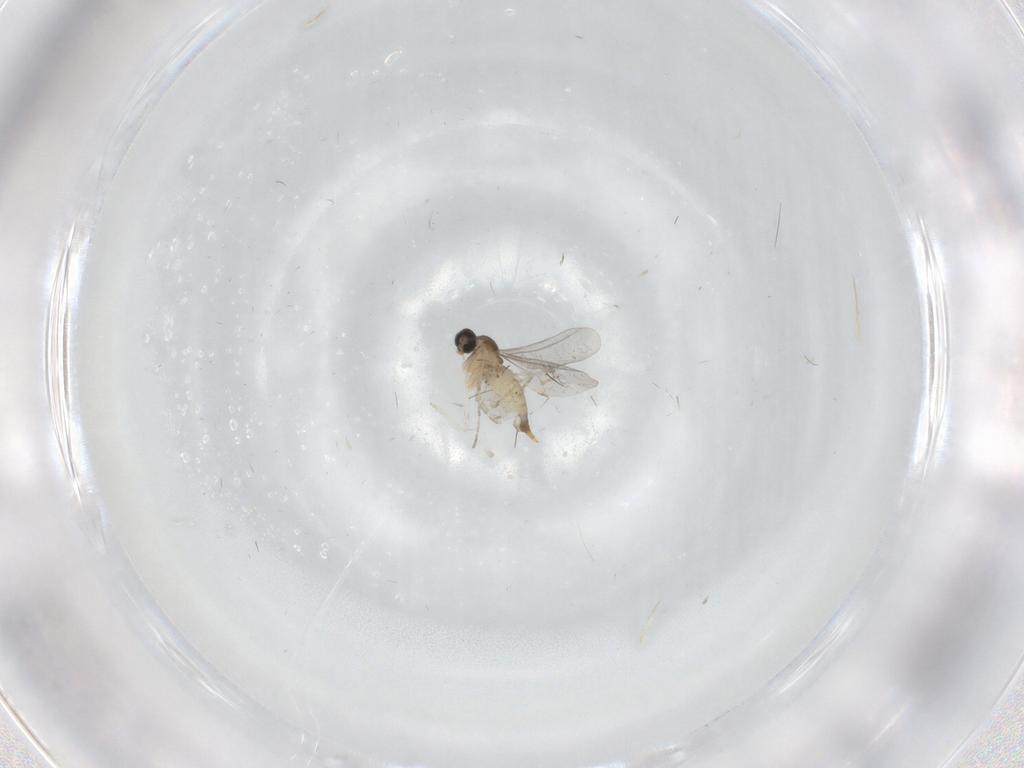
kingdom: Animalia
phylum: Arthropoda
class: Insecta
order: Diptera
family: Cecidomyiidae
